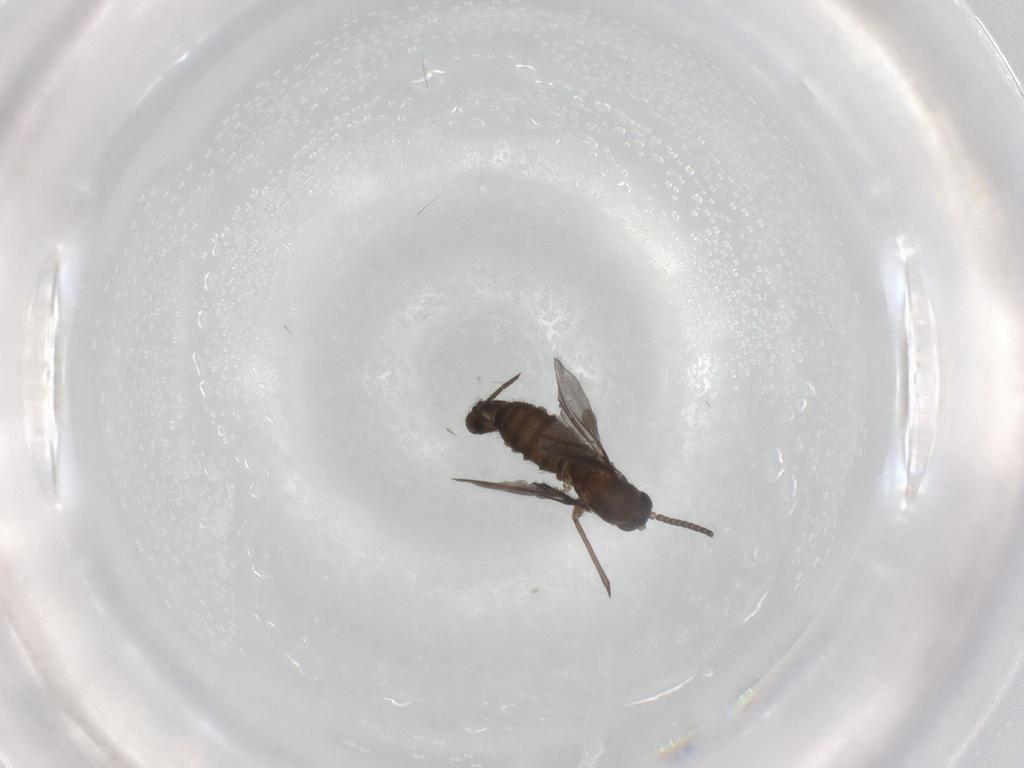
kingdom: Animalia
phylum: Arthropoda
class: Insecta
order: Diptera
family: Sciaridae
